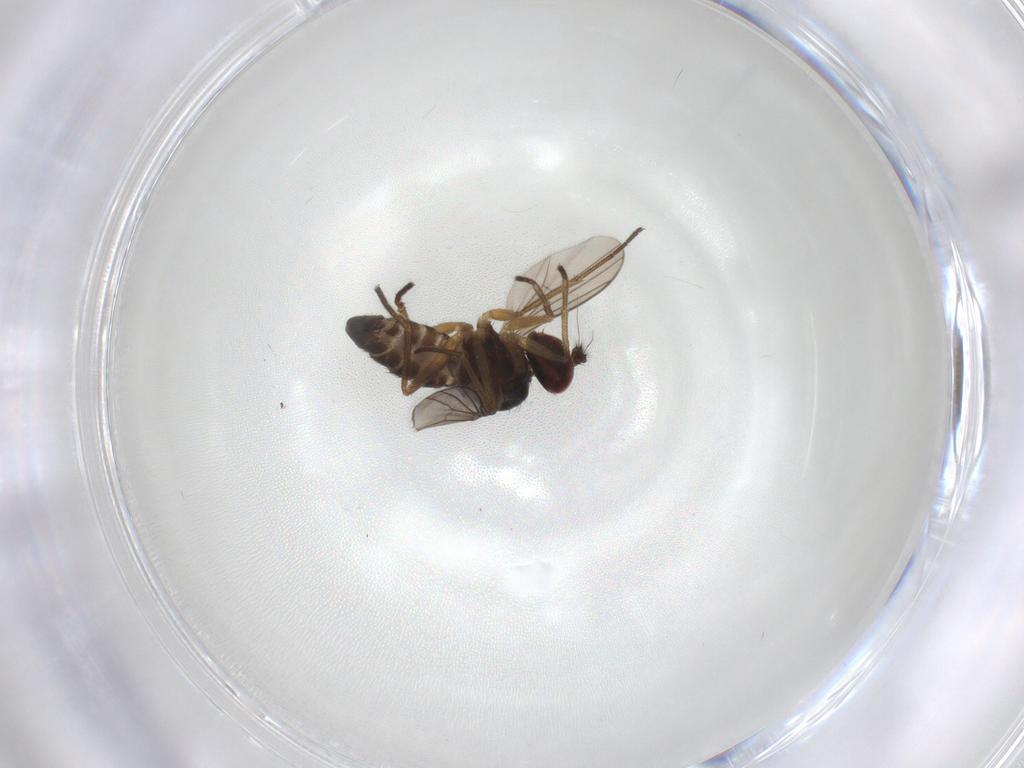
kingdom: Animalia
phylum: Arthropoda
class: Insecta
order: Diptera
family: Dolichopodidae
